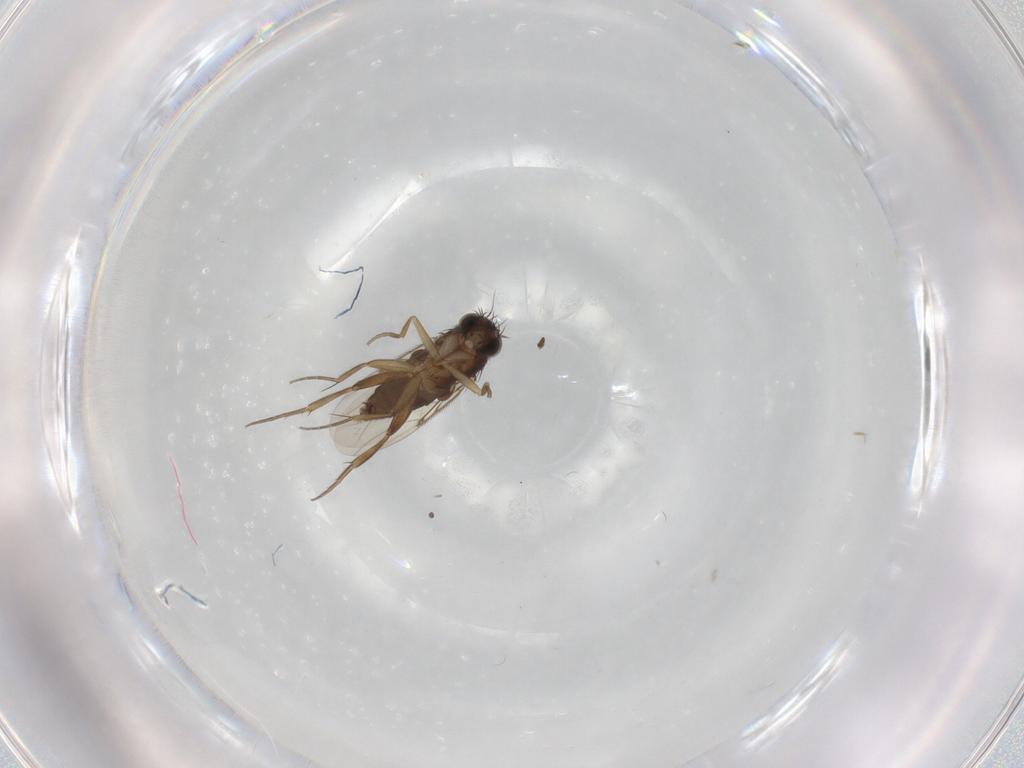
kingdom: Animalia
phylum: Arthropoda
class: Insecta
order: Diptera
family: Phoridae
